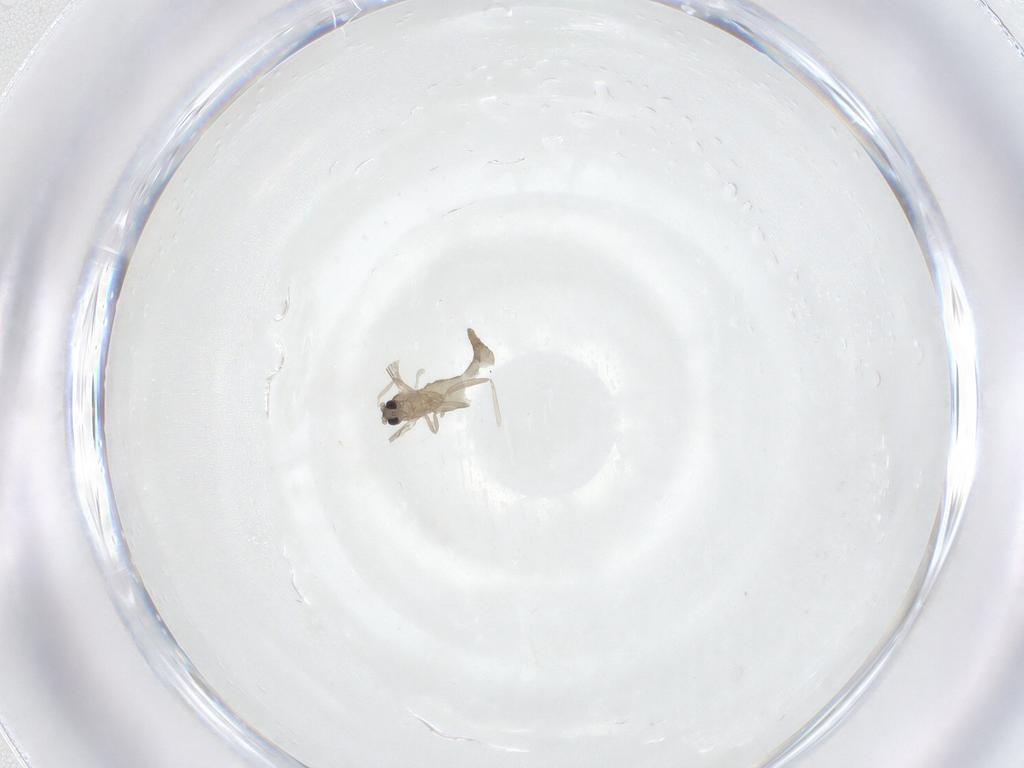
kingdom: Animalia
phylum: Arthropoda
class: Insecta
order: Diptera
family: Cecidomyiidae
